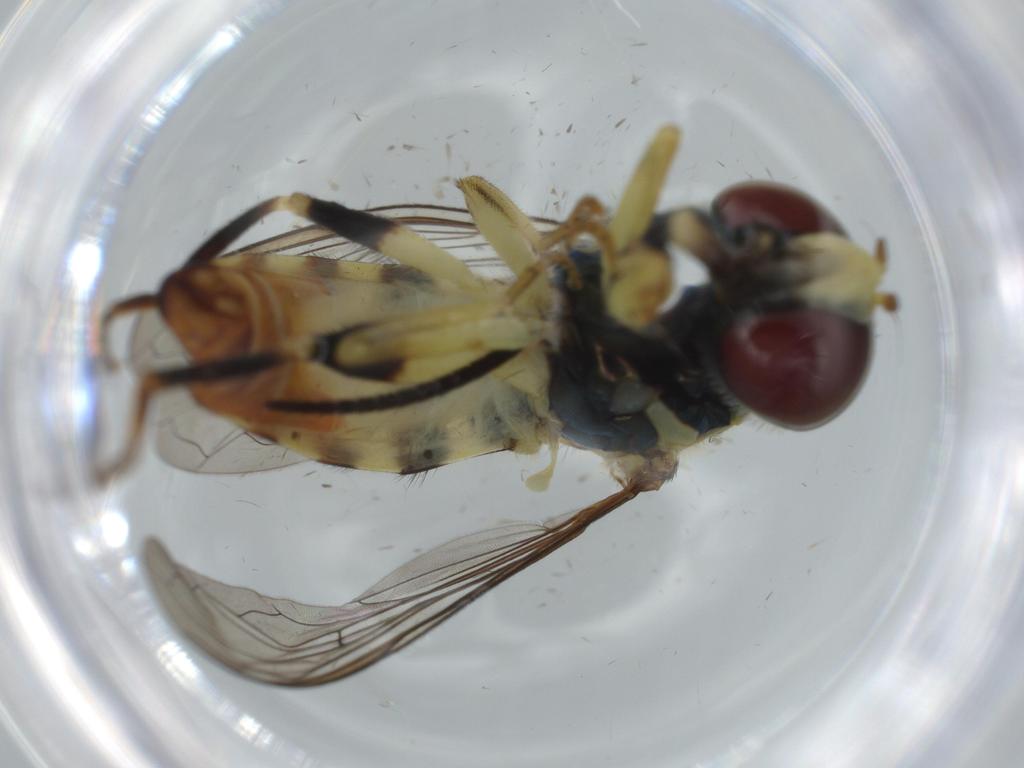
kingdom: Animalia
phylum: Arthropoda
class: Insecta
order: Diptera
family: Syrphidae
